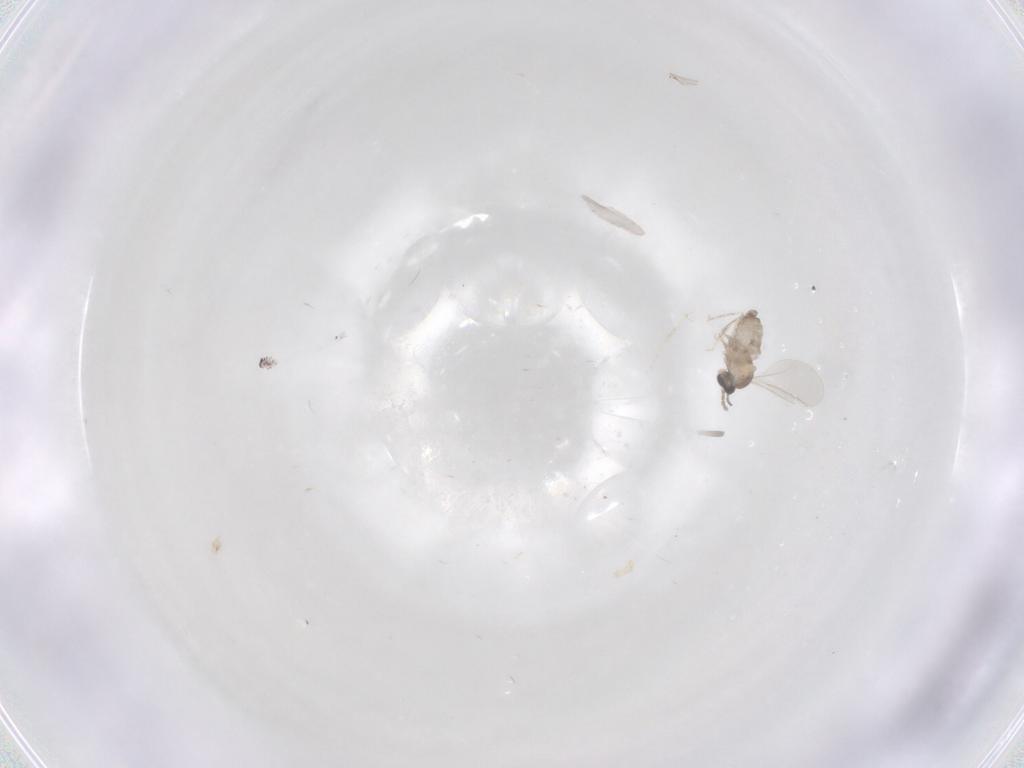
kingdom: Animalia
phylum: Arthropoda
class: Insecta
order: Diptera
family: Cecidomyiidae
